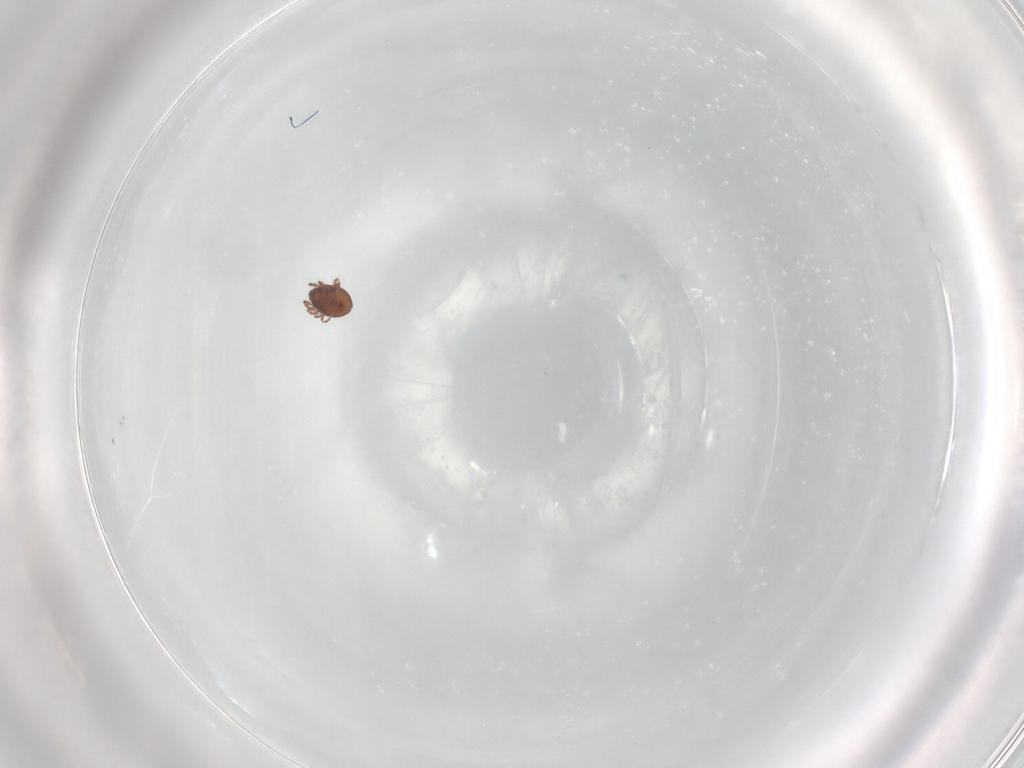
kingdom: Animalia
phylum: Arthropoda
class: Arachnida
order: Sarcoptiformes
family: Ceratoppiidae
